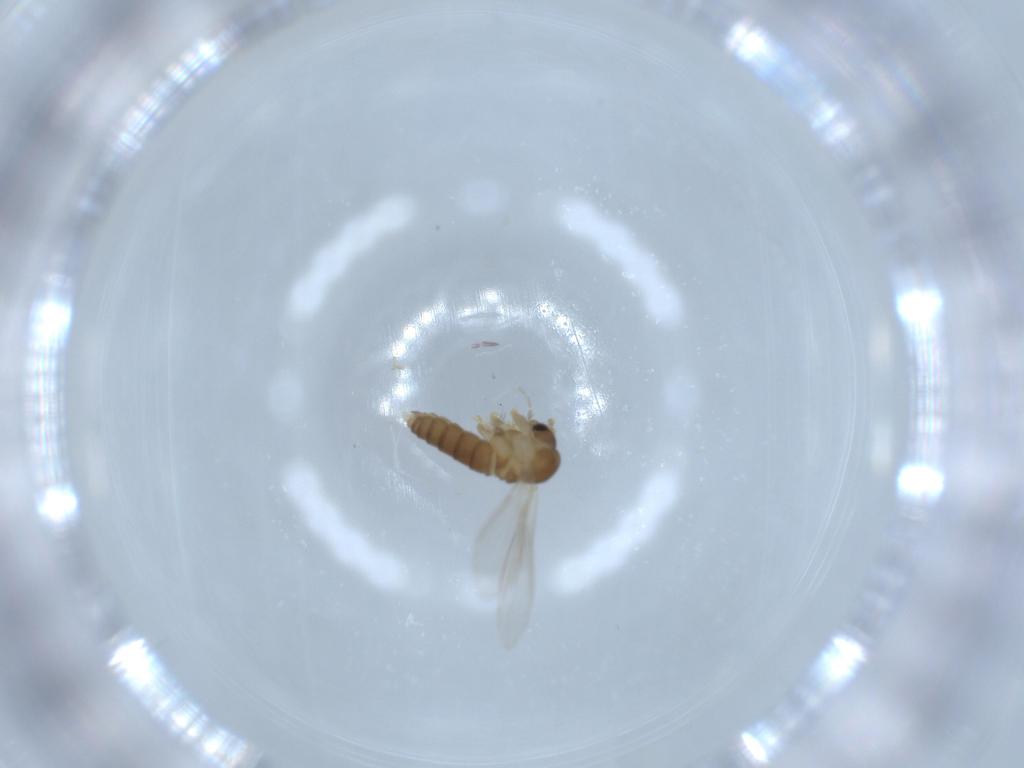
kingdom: Animalia
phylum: Arthropoda
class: Insecta
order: Diptera
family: Psychodidae
